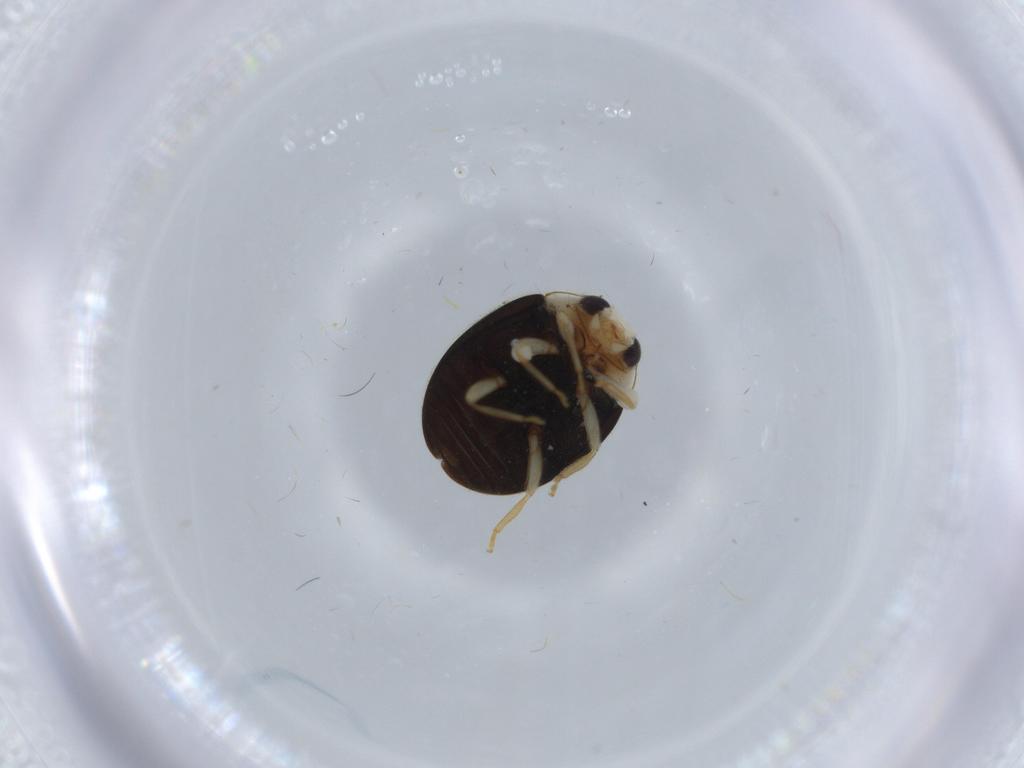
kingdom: Animalia
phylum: Arthropoda
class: Insecta
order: Coleoptera
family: Coccinellidae
